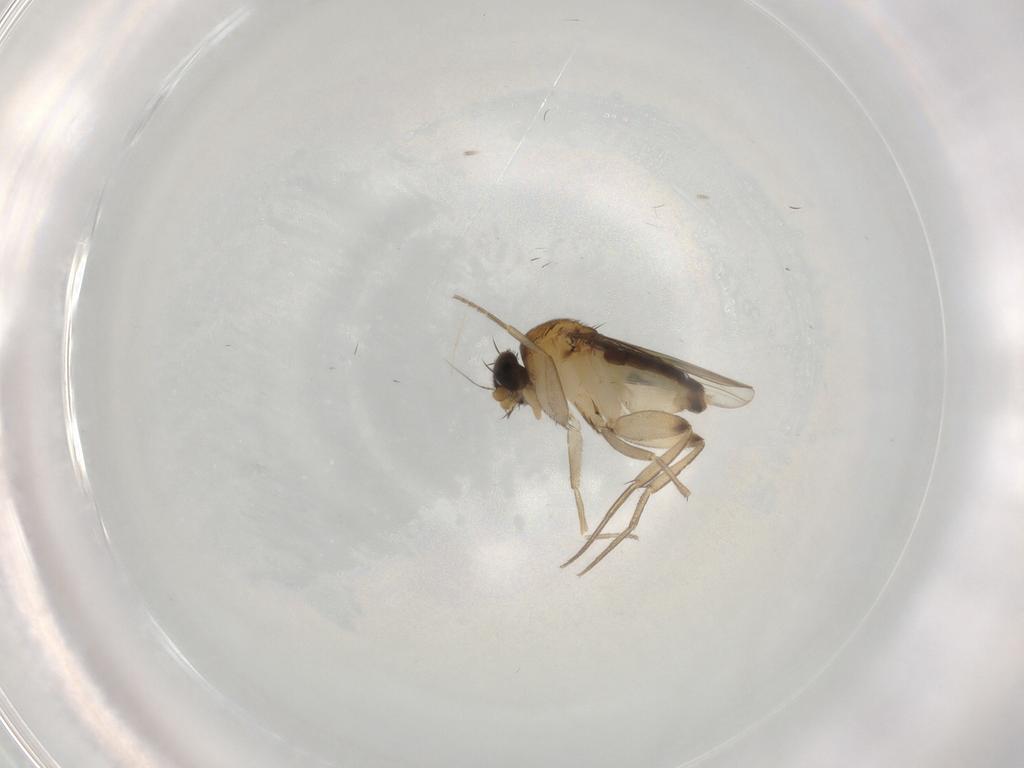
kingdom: Animalia
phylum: Arthropoda
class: Insecta
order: Diptera
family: Phoridae
